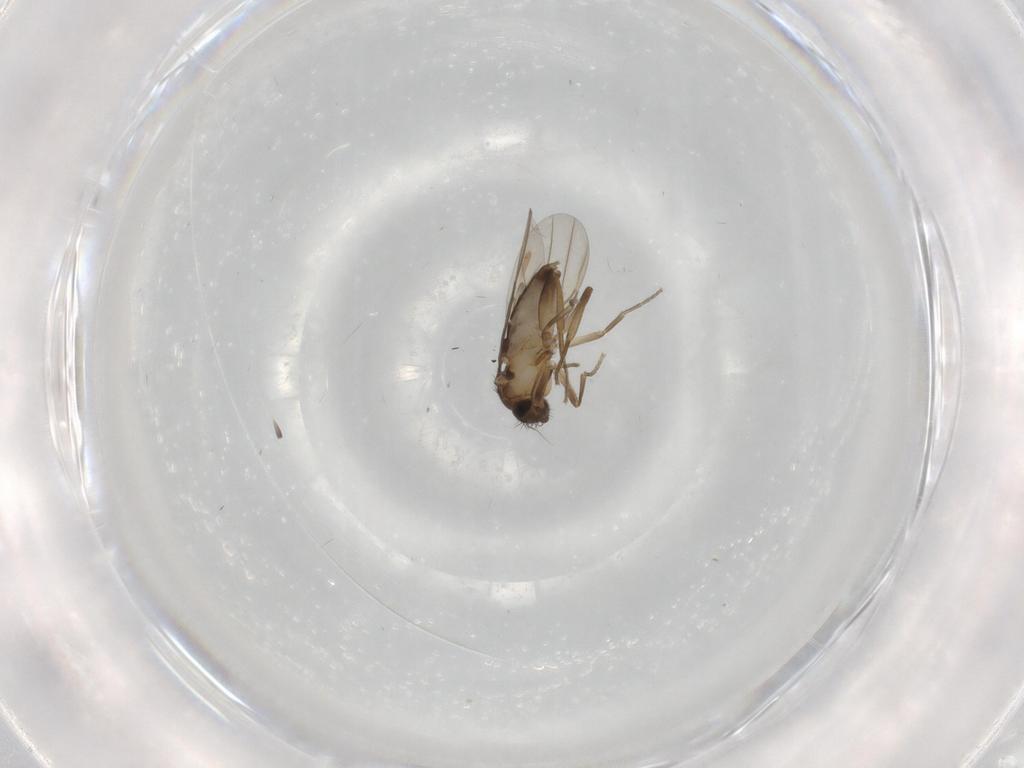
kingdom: Animalia
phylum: Arthropoda
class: Insecta
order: Diptera
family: Phoridae
